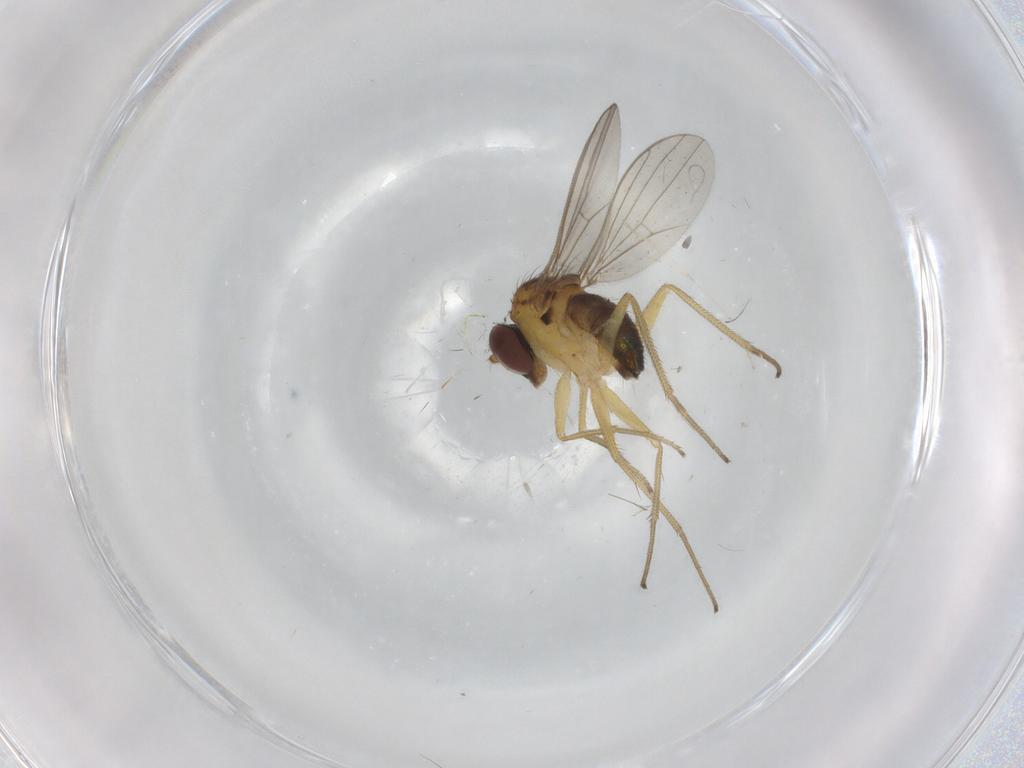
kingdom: Animalia
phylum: Arthropoda
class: Insecta
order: Diptera
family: Dolichopodidae
